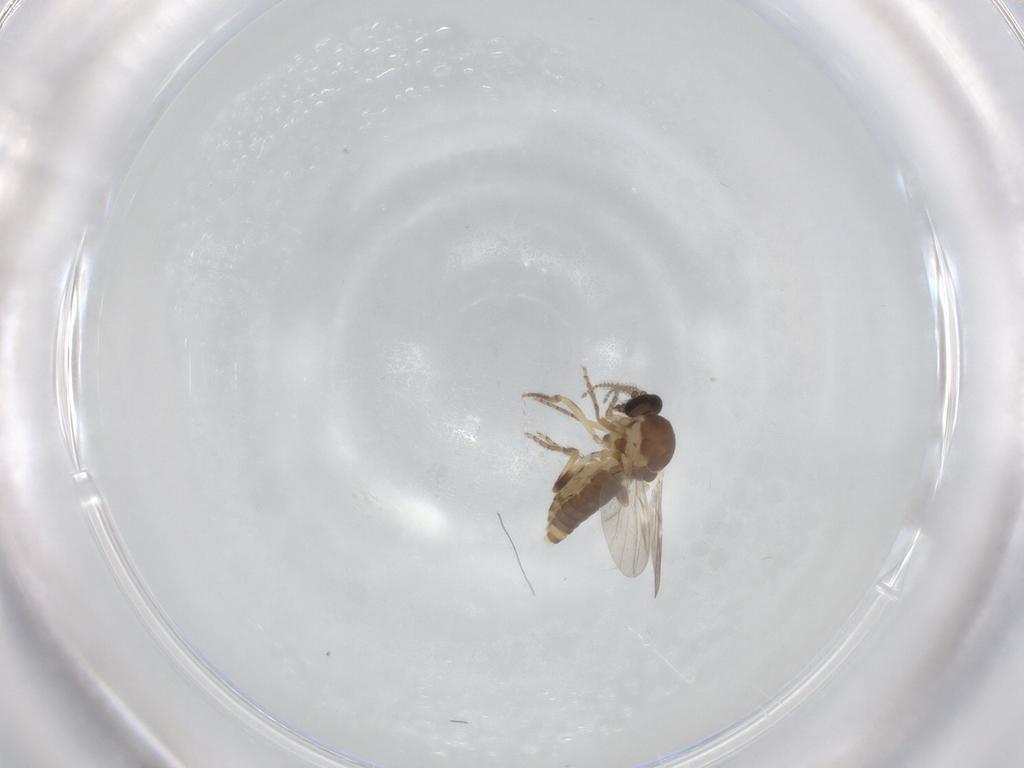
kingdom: Animalia
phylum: Arthropoda
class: Insecta
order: Diptera
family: Ceratopogonidae
